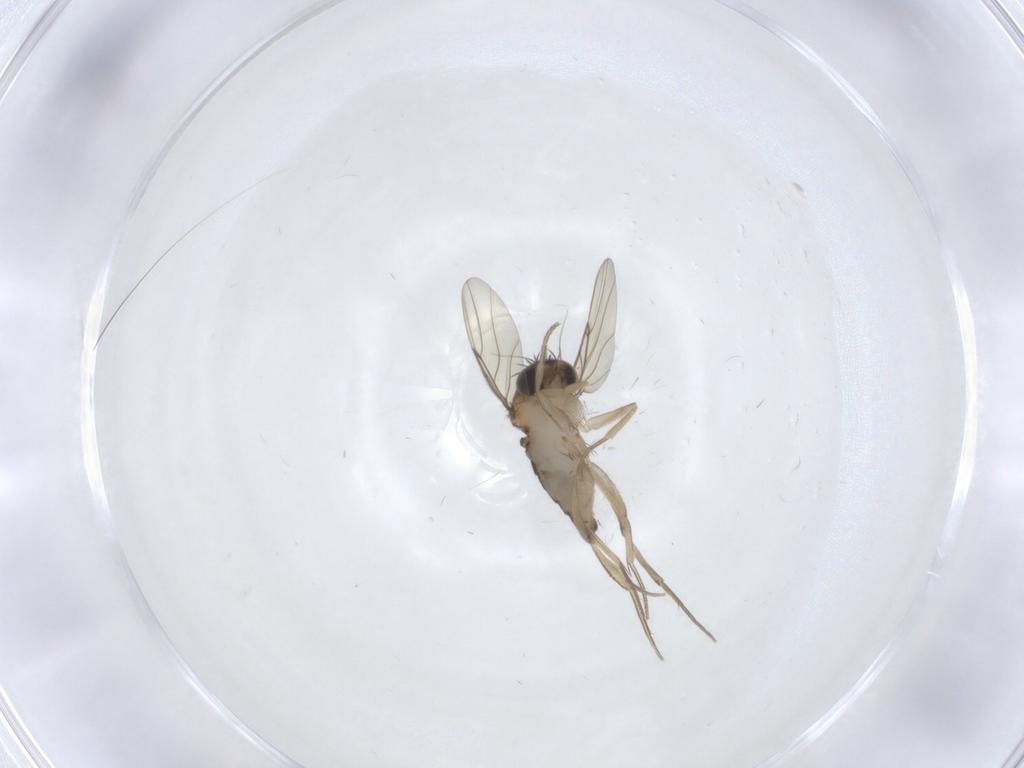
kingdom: Animalia
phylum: Arthropoda
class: Insecta
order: Diptera
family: Phoridae
